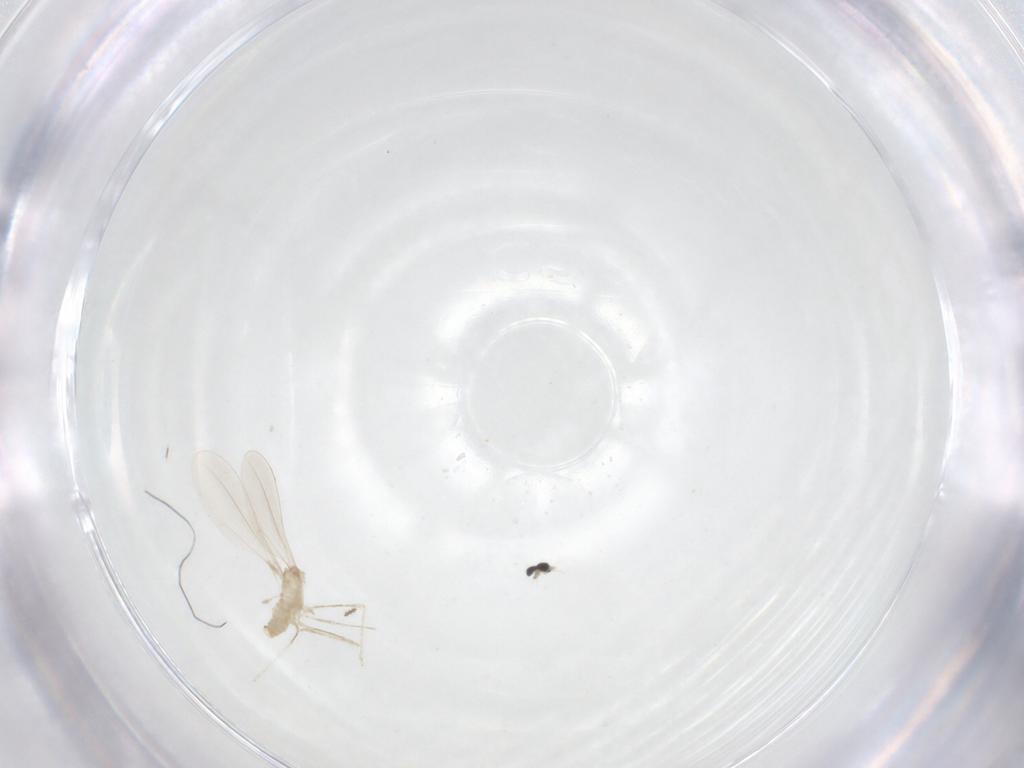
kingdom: Animalia
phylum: Arthropoda
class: Insecta
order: Diptera
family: Cecidomyiidae
